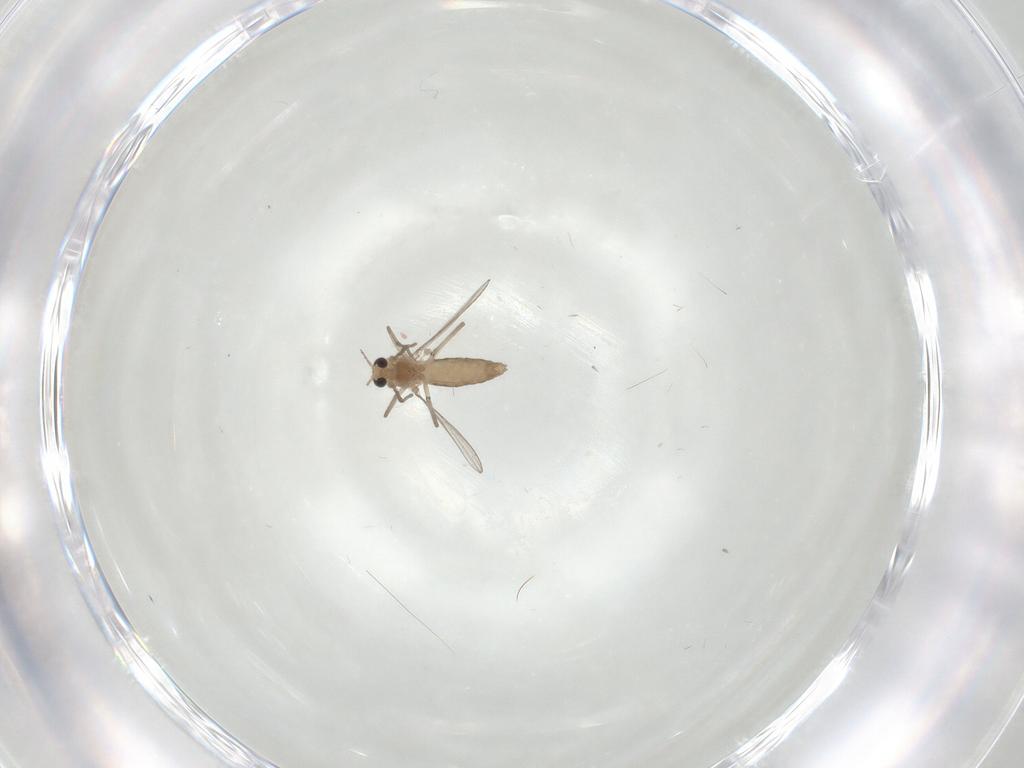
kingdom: Animalia
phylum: Arthropoda
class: Insecta
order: Diptera
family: Chironomidae
